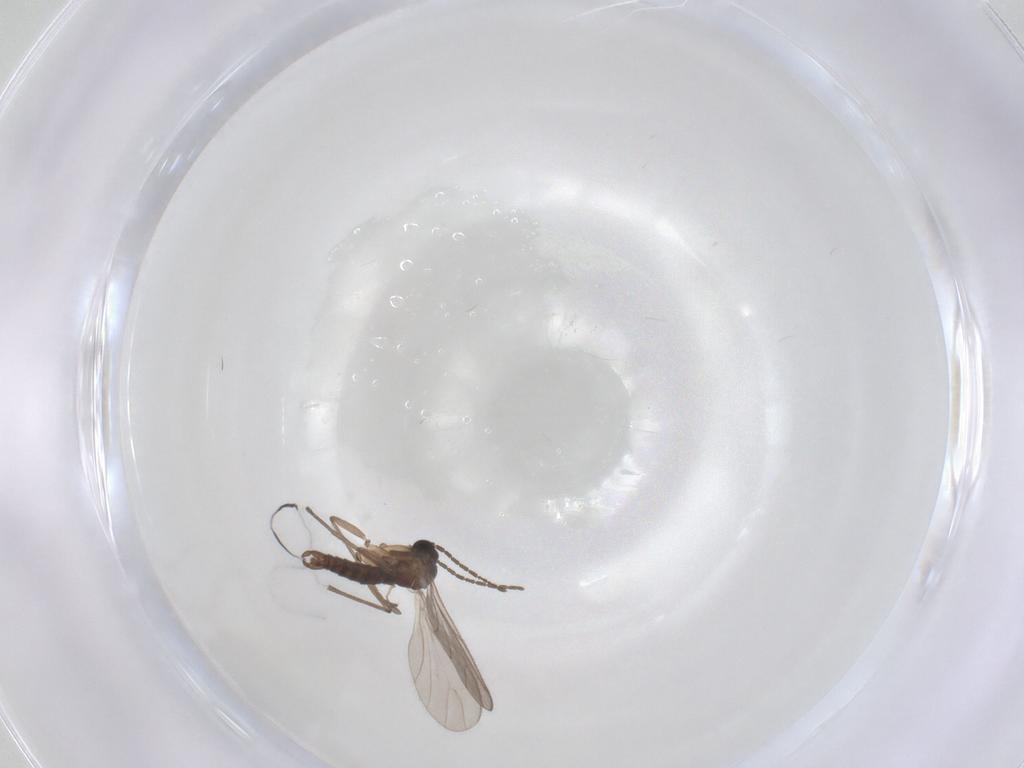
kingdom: Animalia
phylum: Arthropoda
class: Insecta
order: Diptera
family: Sciaridae
